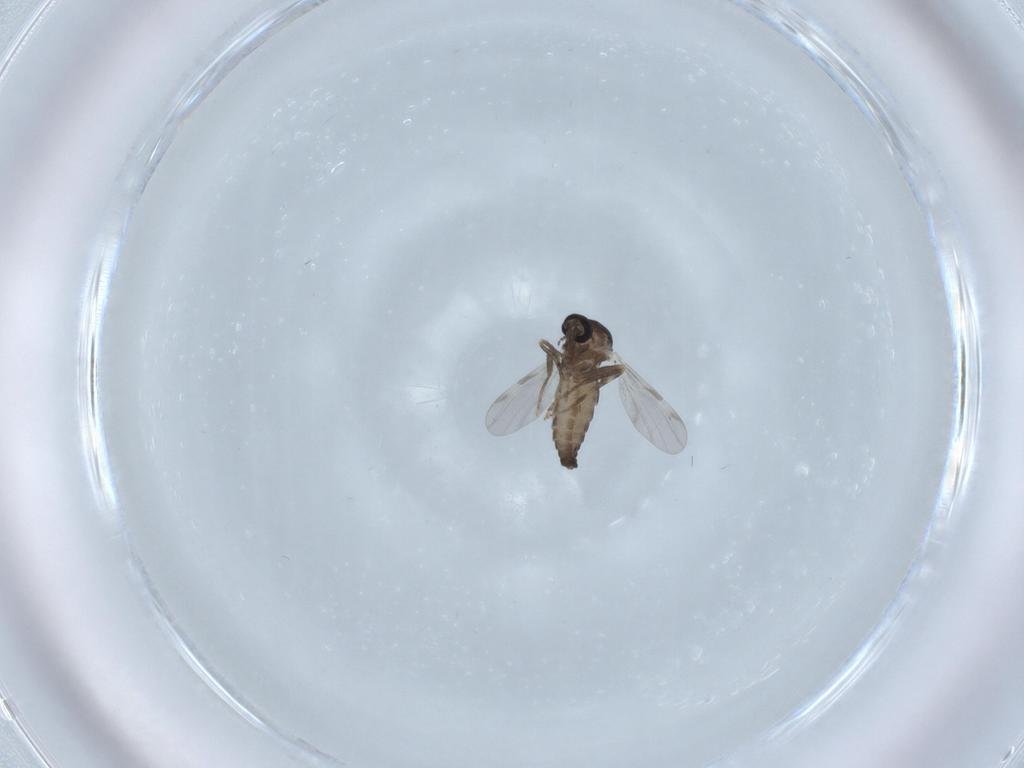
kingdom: Animalia
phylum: Arthropoda
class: Insecta
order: Diptera
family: Ceratopogonidae
